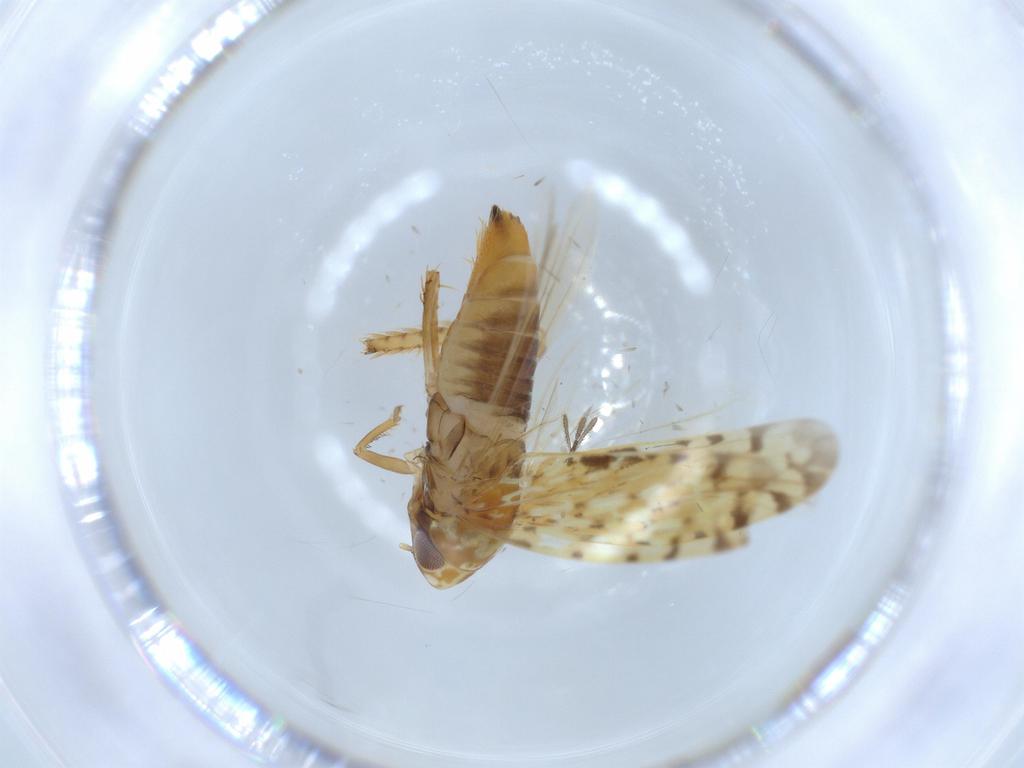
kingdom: Animalia
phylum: Arthropoda
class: Insecta
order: Hemiptera
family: Cicadellidae
